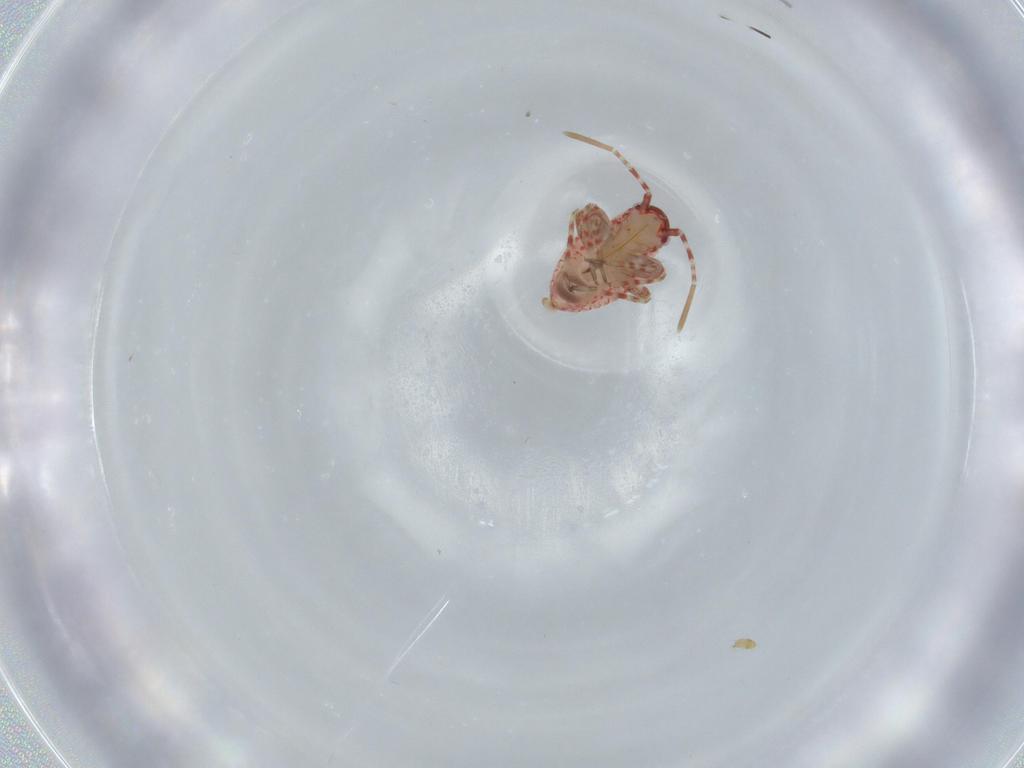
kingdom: Animalia
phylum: Arthropoda
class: Insecta
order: Hemiptera
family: Miridae
